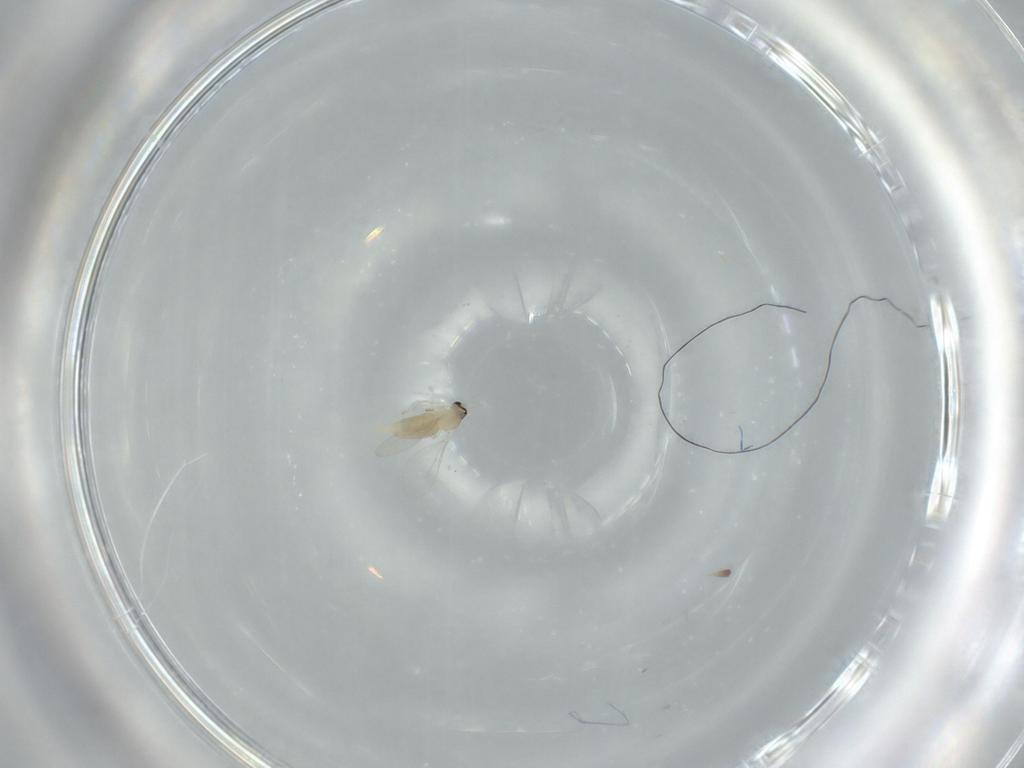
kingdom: Animalia
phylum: Arthropoda
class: Insecta
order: Diptera
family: Cecidomyiidae
